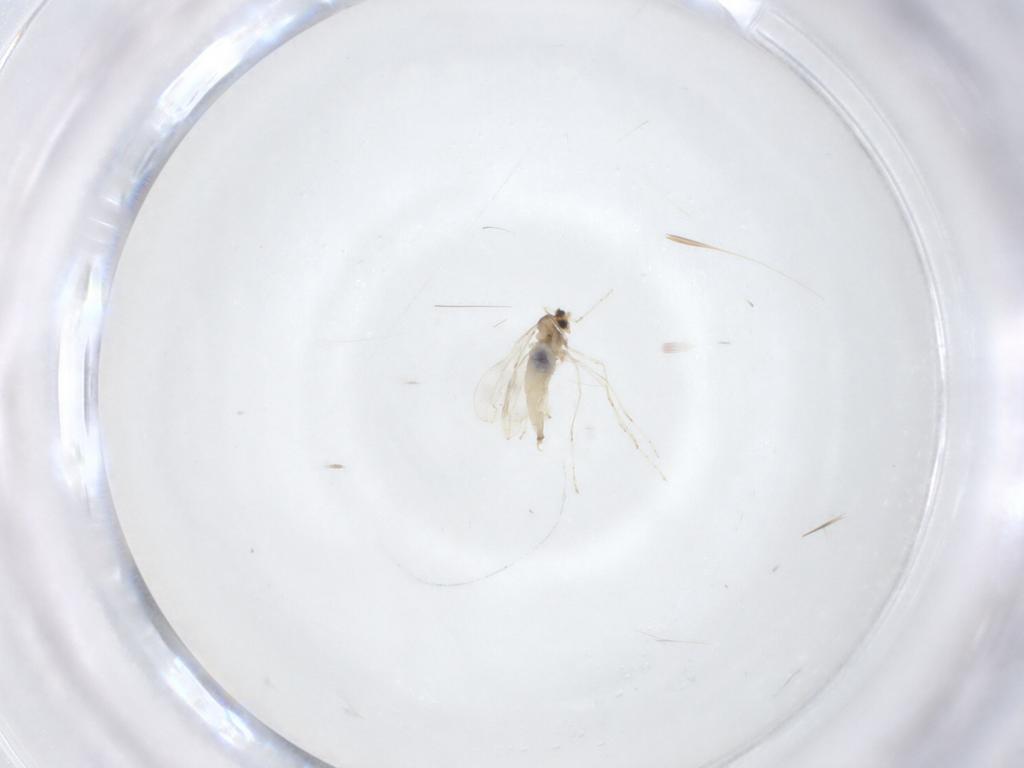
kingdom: Animalia
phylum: Arthropoda
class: Insecta
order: Diptera
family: Cecidomyiidae
